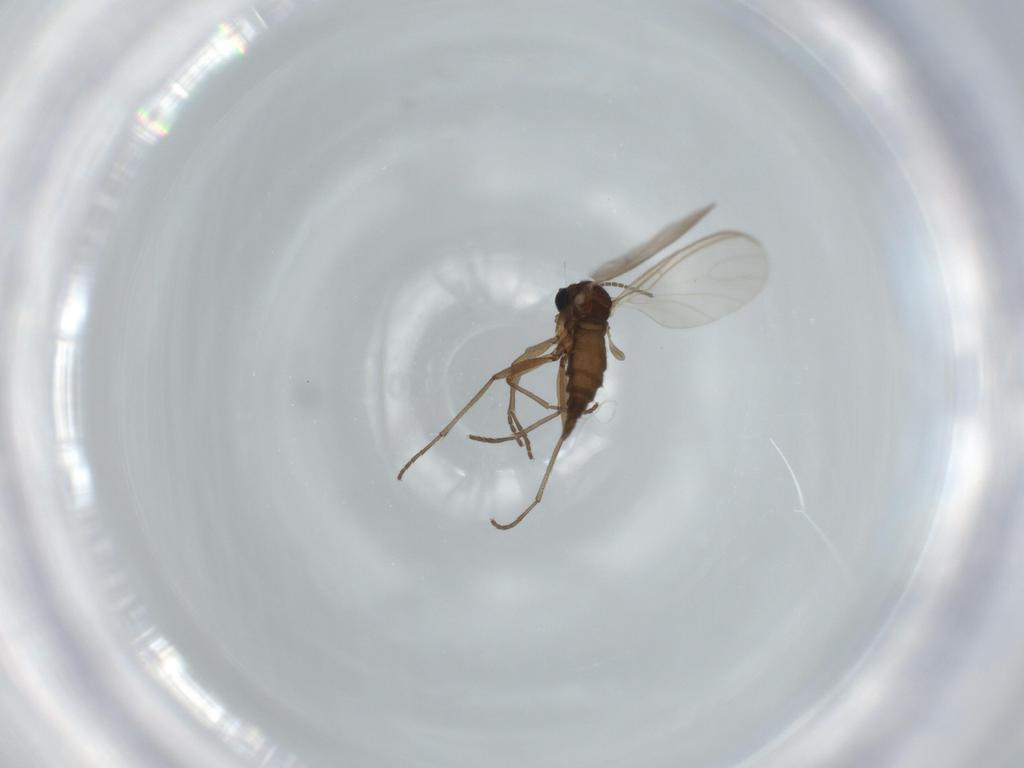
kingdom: Animalia
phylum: Arthropoda
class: Insecta
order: Diptera
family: Sciaridae
